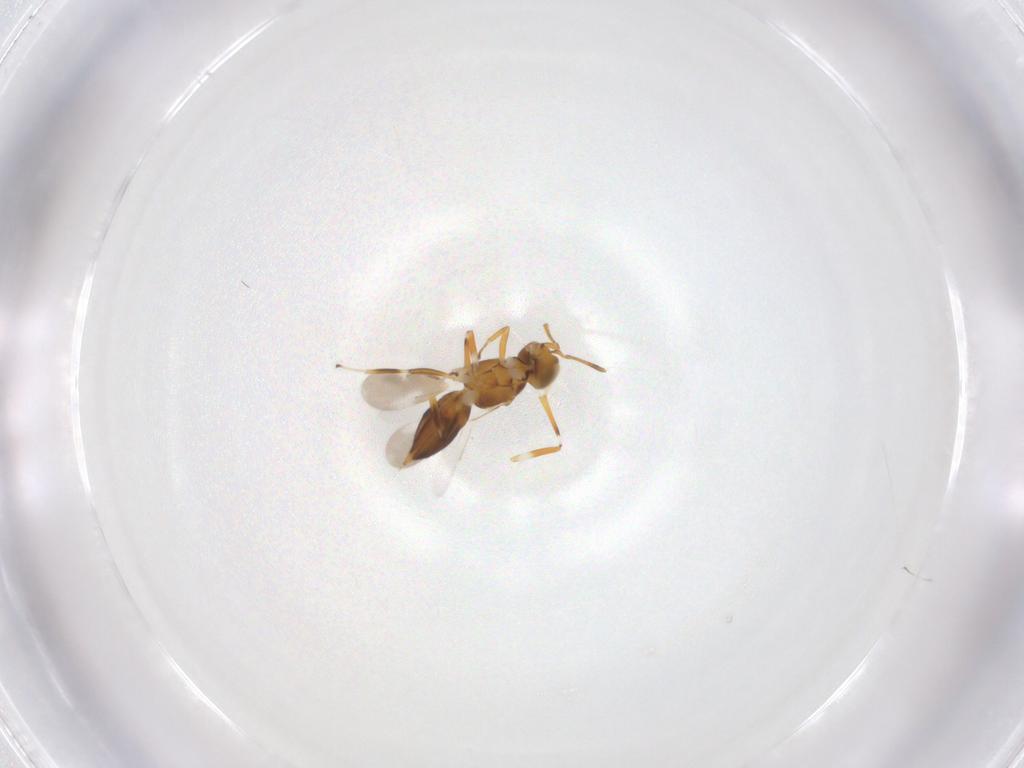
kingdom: Animalia
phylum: Arthropoda
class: Insecta
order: Hymenoptera
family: Encyrtidae
